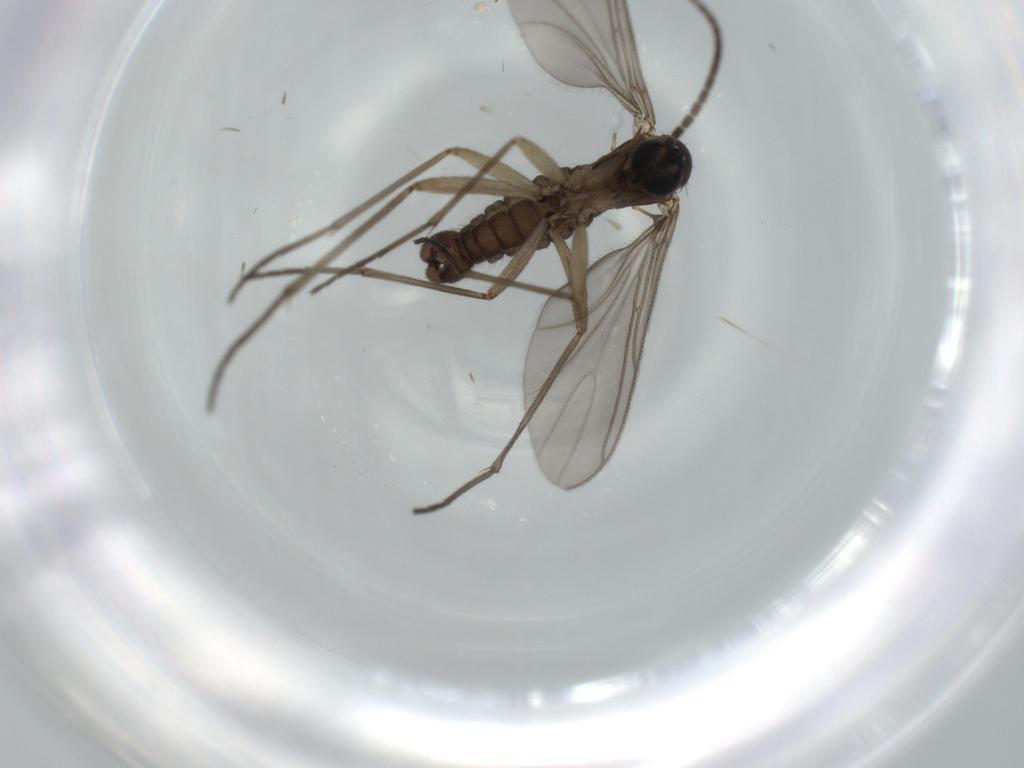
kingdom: Animalia
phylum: Arthropoda
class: Insecta
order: Diptera
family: Sciaridae
